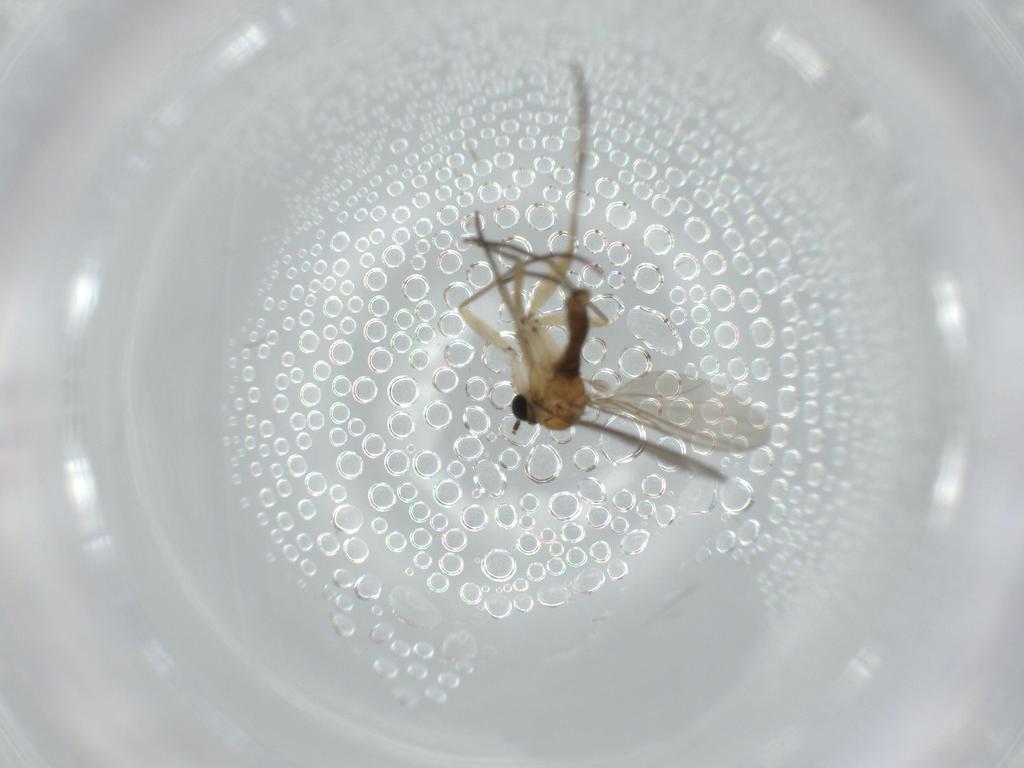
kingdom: Animalia
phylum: Arthropoda
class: Insecta
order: Diptera
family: Sciaridae
